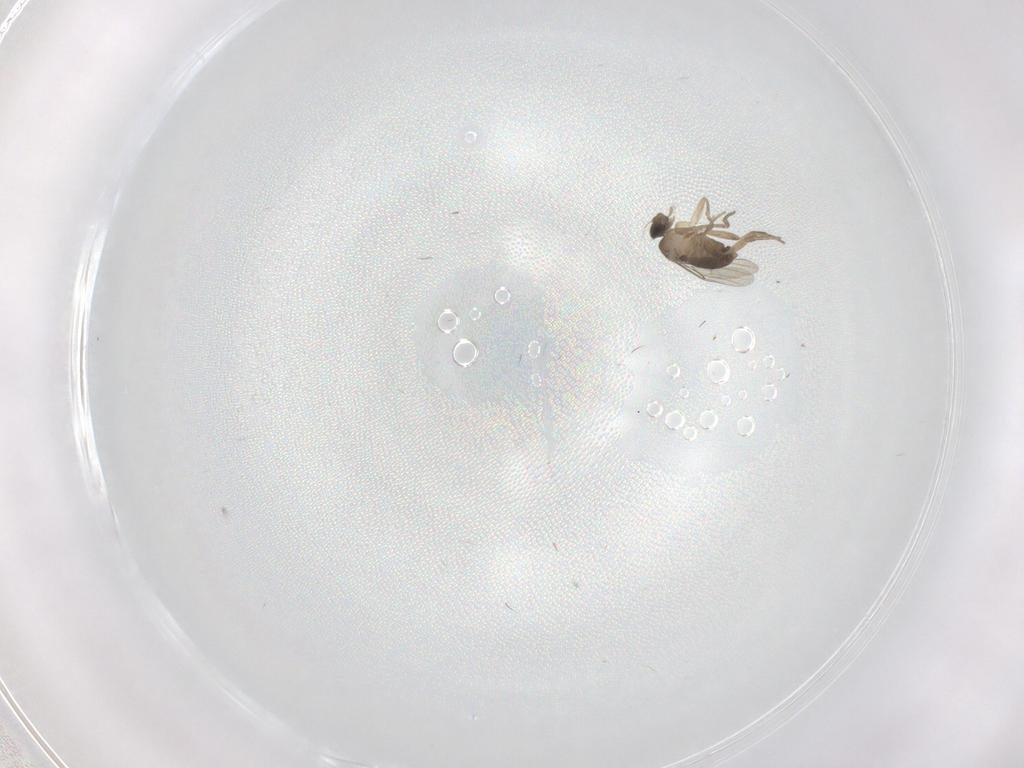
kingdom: Animalia
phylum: Arthropoda
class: Insecta
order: Diptera
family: Phoridae
